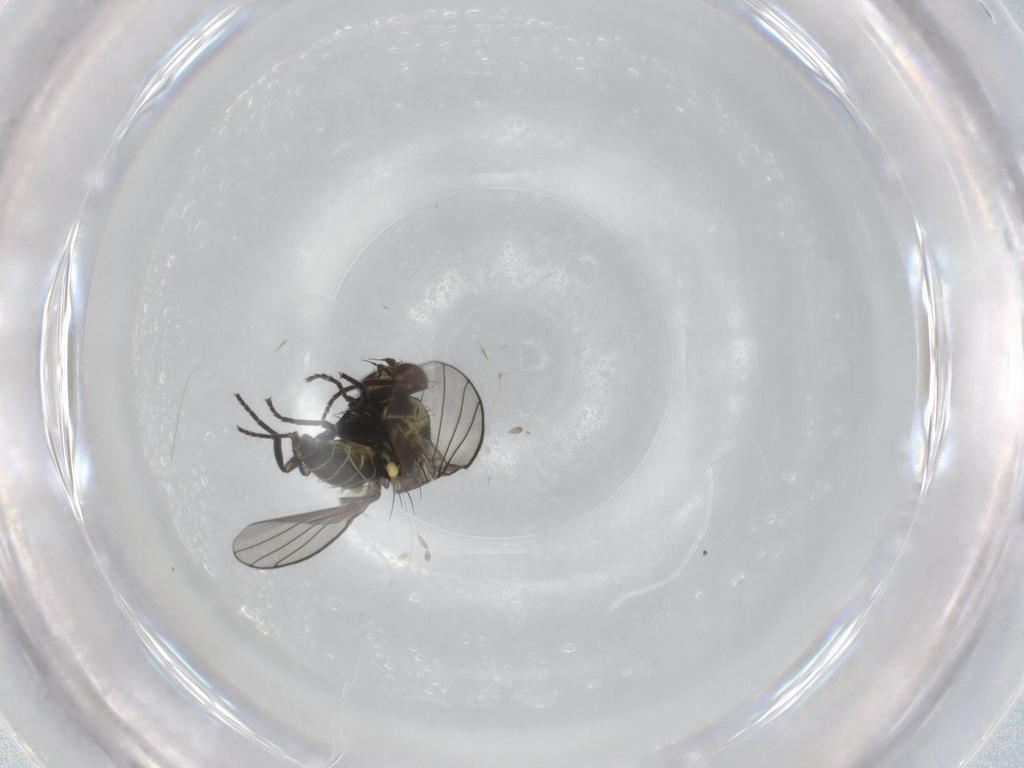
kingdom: Animalia
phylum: Arthropoda
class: Insecta
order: Diptera
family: Agromyzidae
